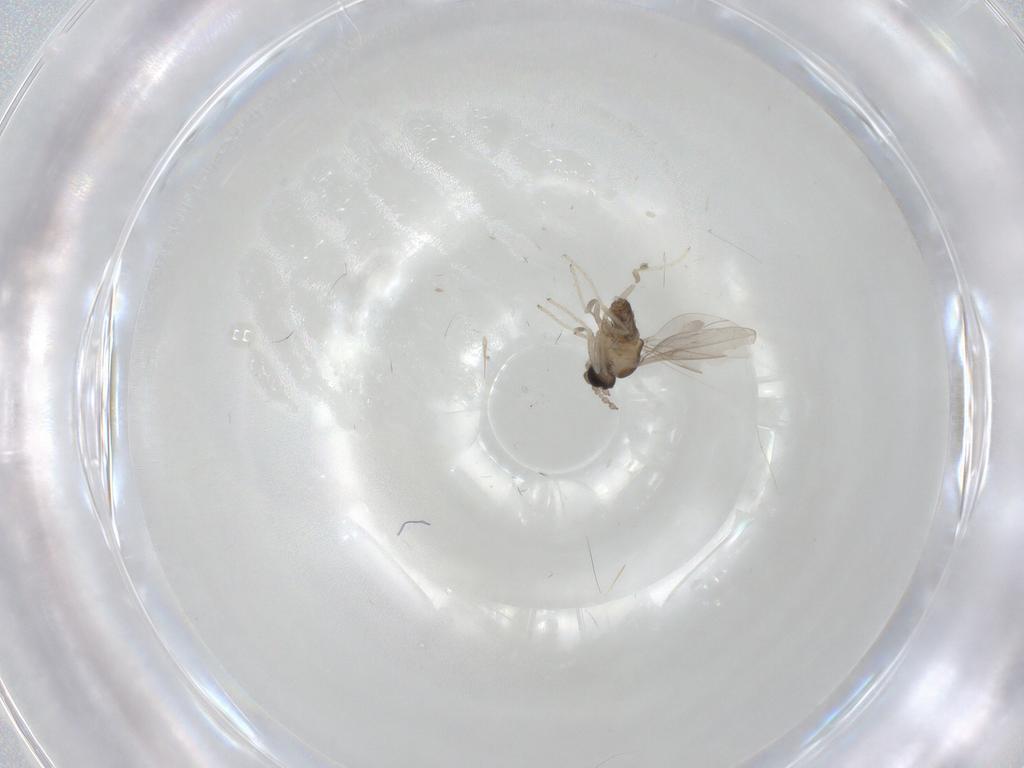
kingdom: Animalia
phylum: Arthropoda
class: Insecta
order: Diptera
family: Cecidomyiidae
